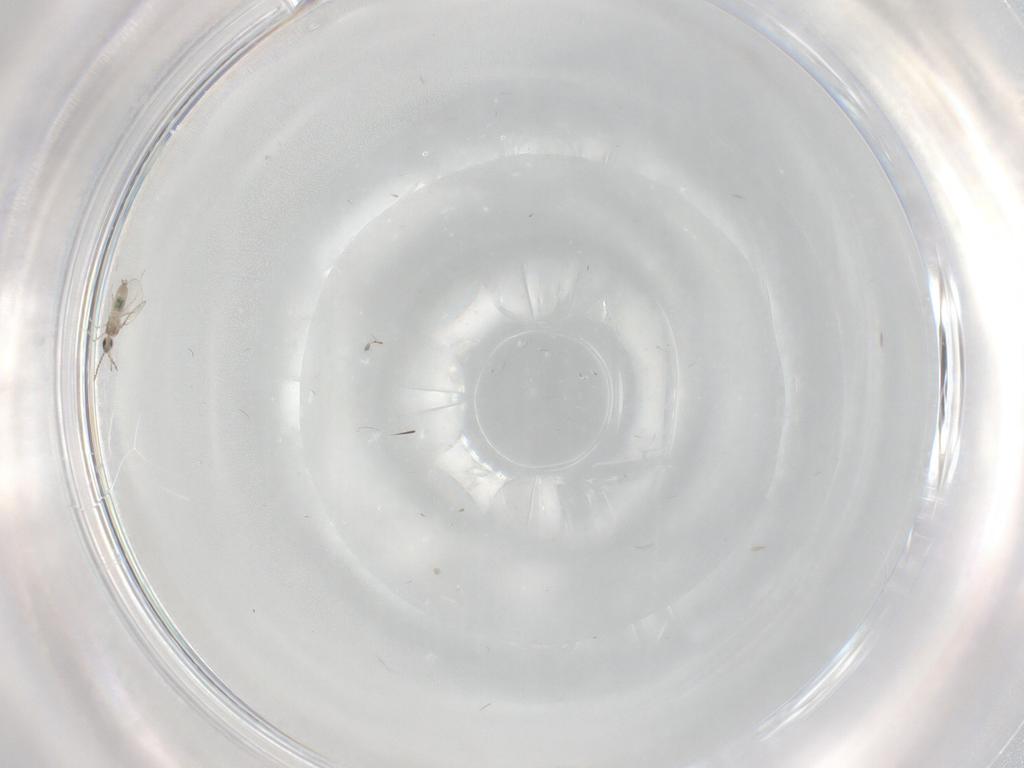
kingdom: Animalia
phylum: Arthropoda
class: Insecta
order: Diptera
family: Cecidomyiidae
